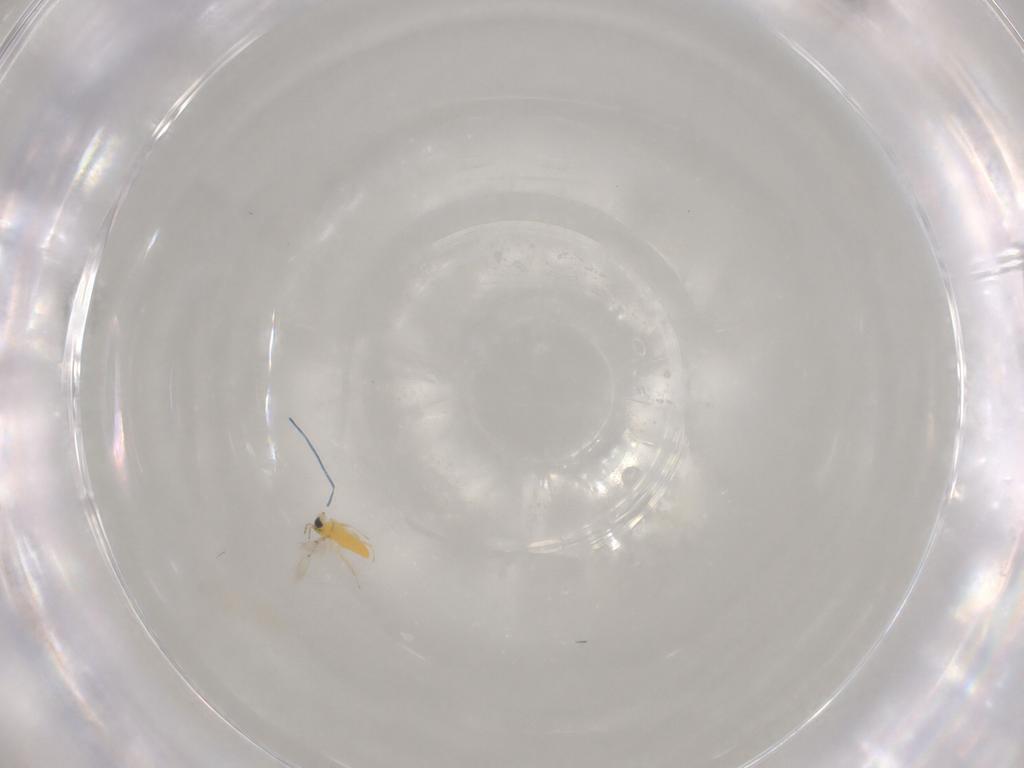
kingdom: Animalia
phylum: Arthropoda
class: Insecta
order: Hymenoptera
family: Trichogrammatidae
